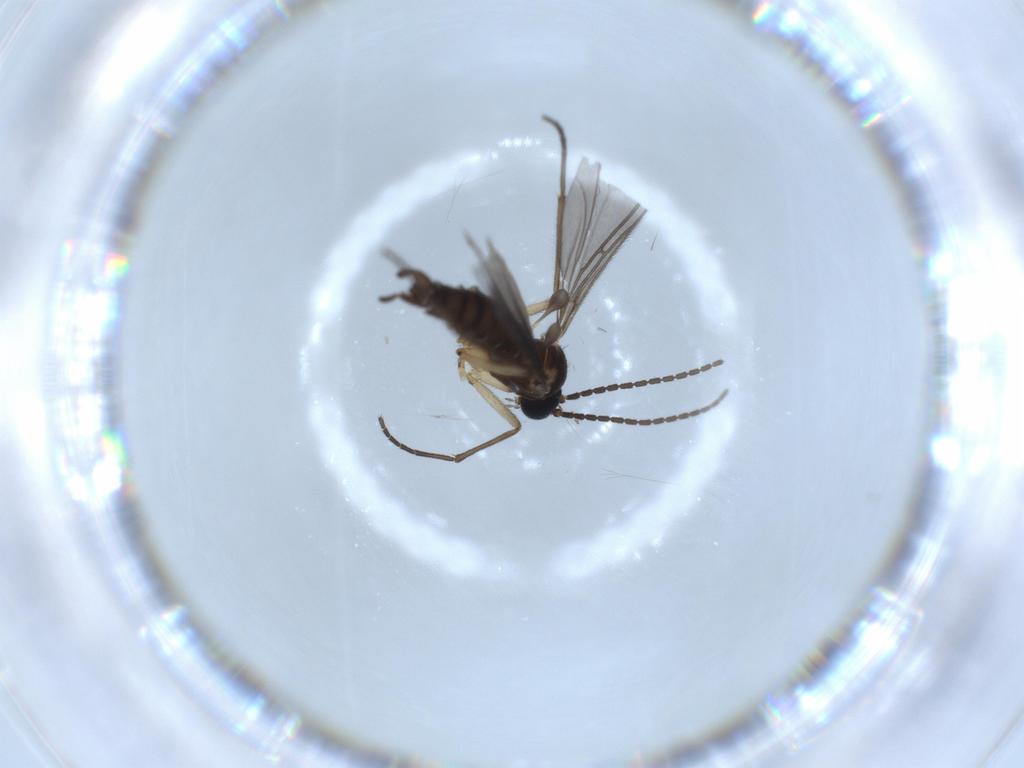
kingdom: Animalia
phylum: Arthropoda
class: Insecta
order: Diptera
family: Sciaridae
